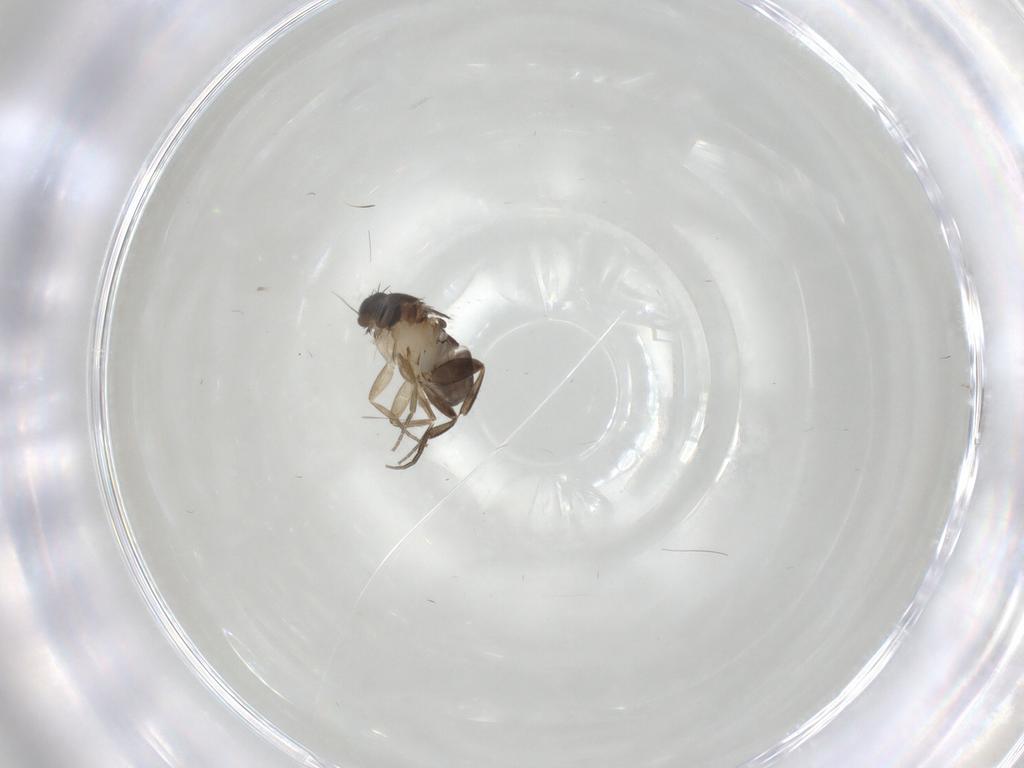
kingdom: Animalia
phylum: Arthropoda
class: Insecta
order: Diptera
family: Phoridae
